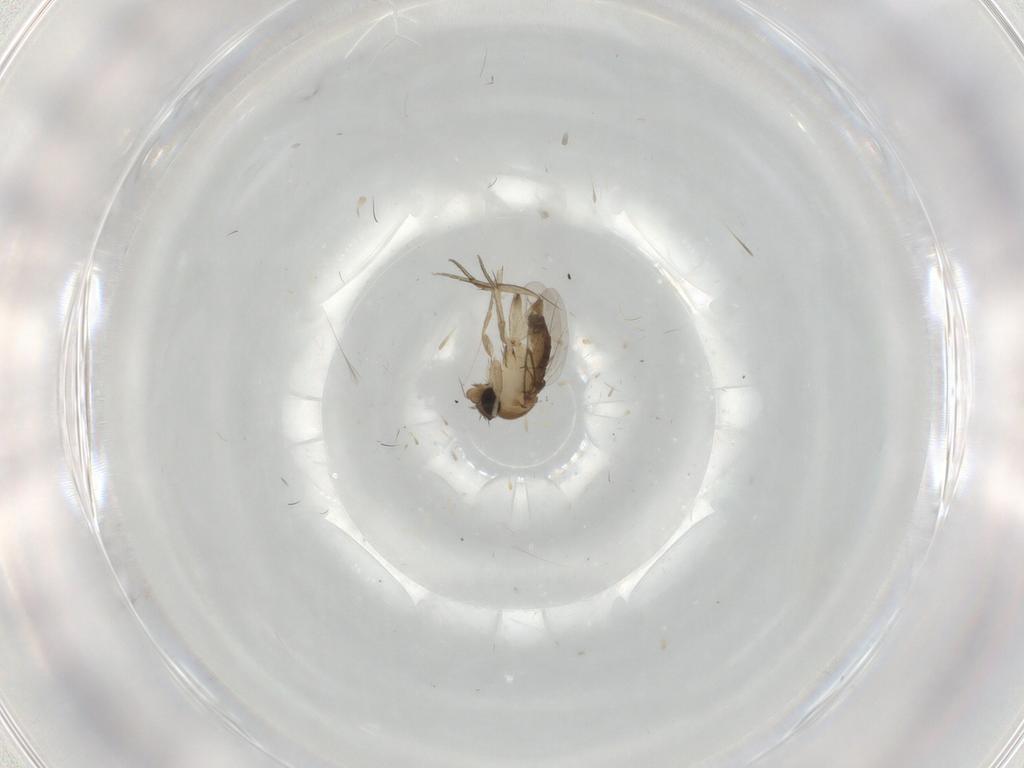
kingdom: Animalia
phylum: Arthropoda
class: Insecta
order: Diptera
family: Phoridae
